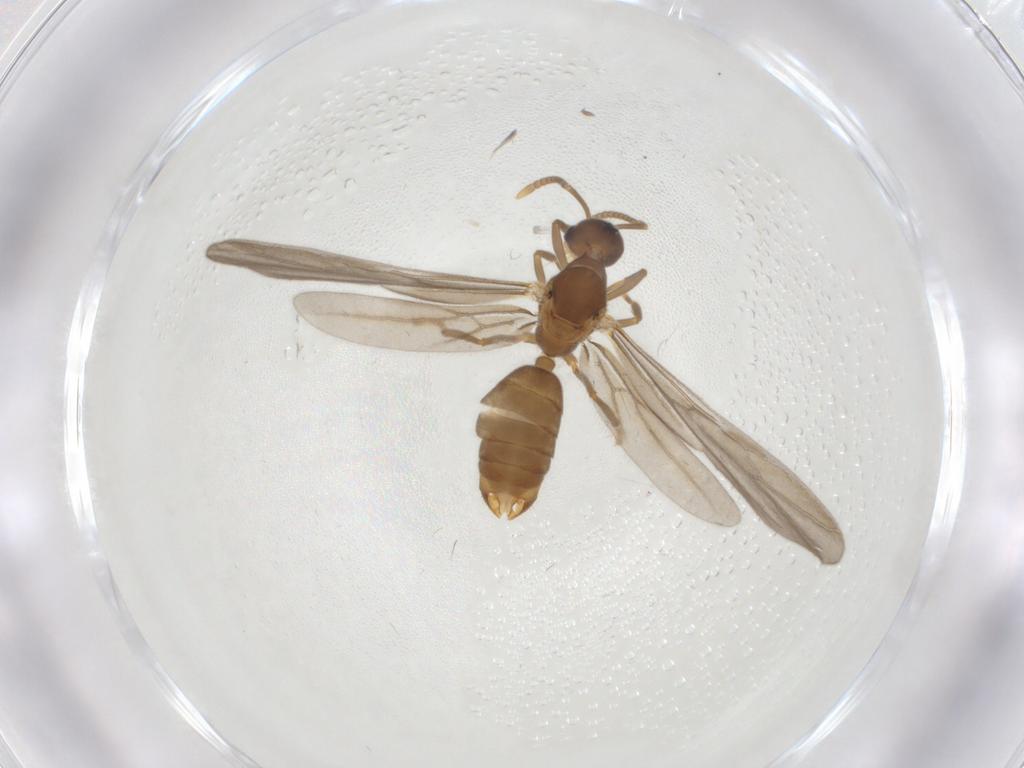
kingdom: Animalia
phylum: Arthropoda
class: Insecta
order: Hymenoptera
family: Formicidae
